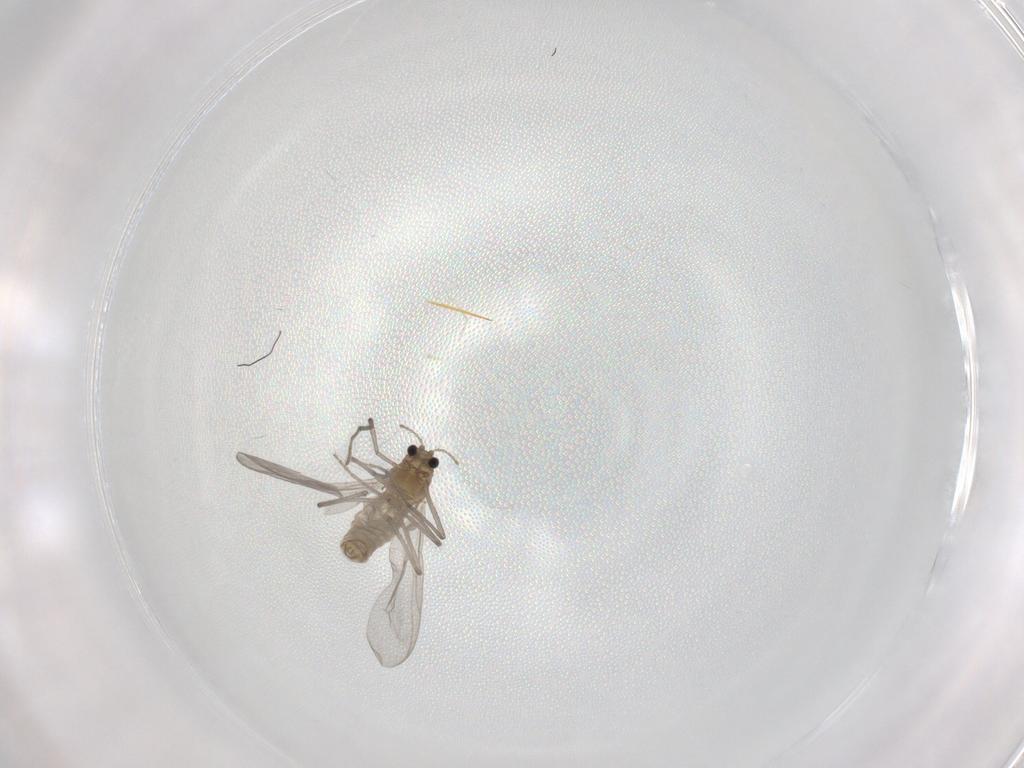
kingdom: Animalia
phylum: Arthropoda
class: Insecta
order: Diptera
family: Chironomidae
